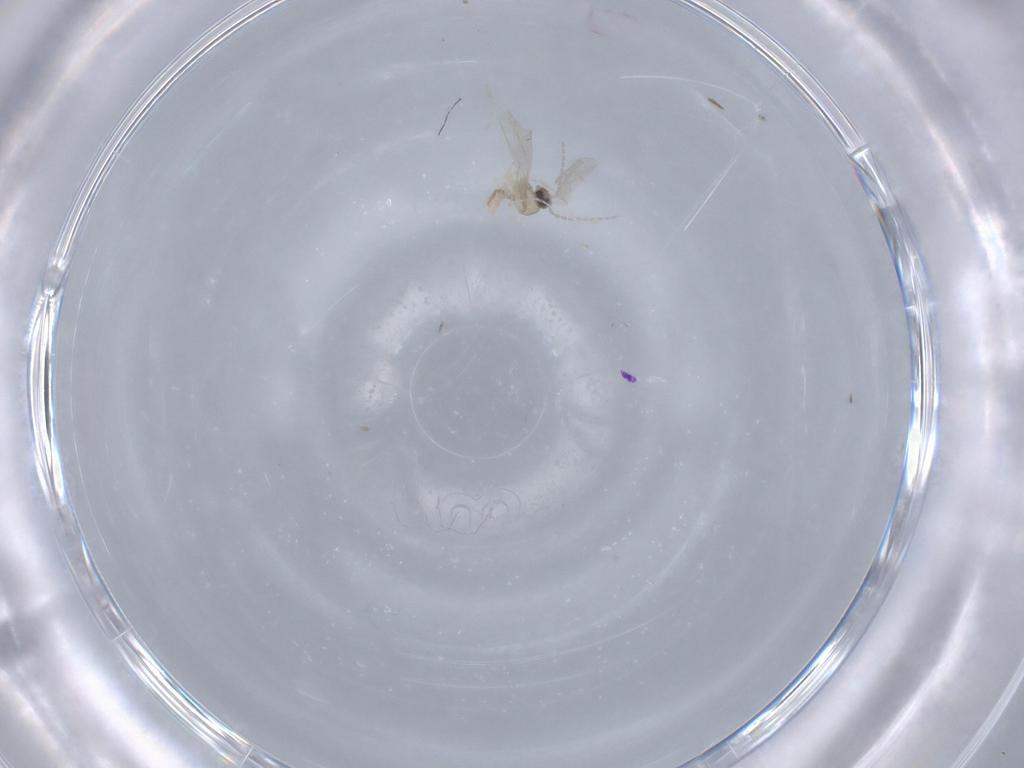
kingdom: Animalia
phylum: Arthropoda
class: Insecta
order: Diptera
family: Cecidomyiidae
